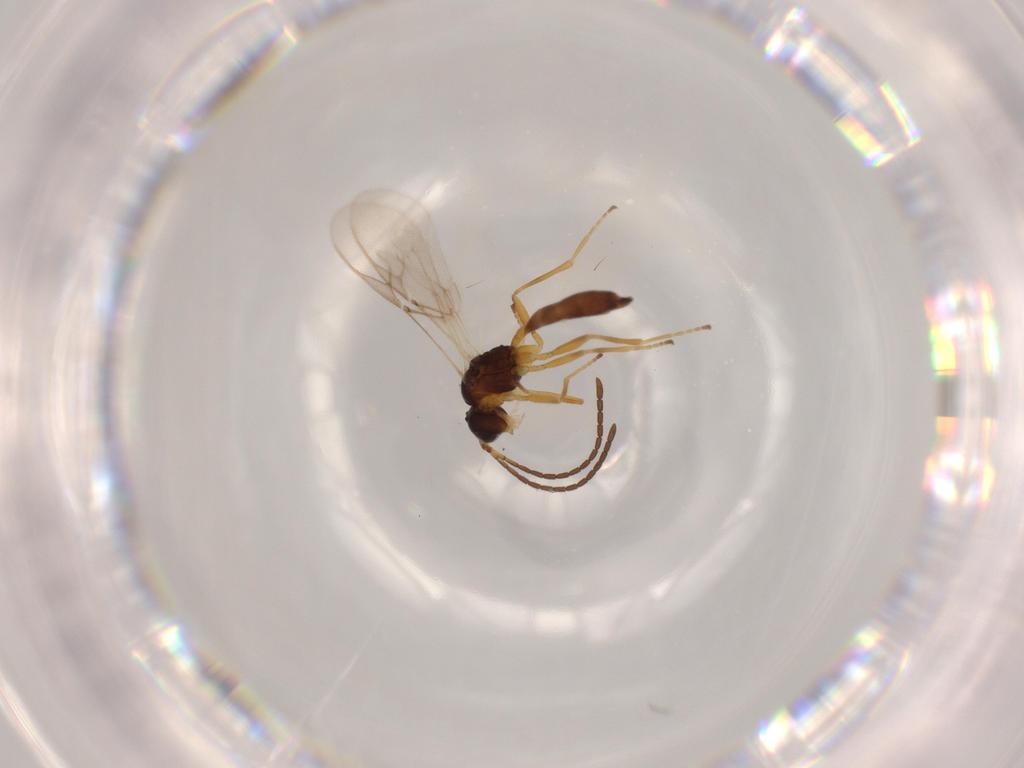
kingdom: Animalia
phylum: Arthropoda
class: Insecta
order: Hymenoptera
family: Braconidae
